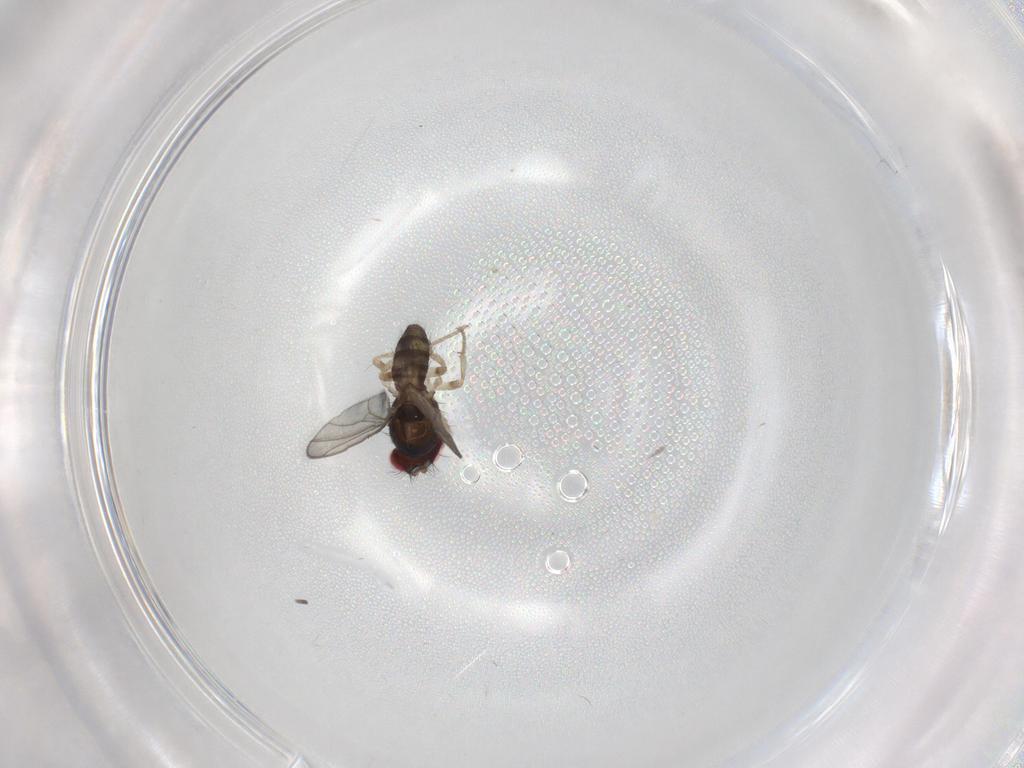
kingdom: Animalia
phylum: Arthropoda
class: Insecta
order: Diptera
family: Drosophilidae
